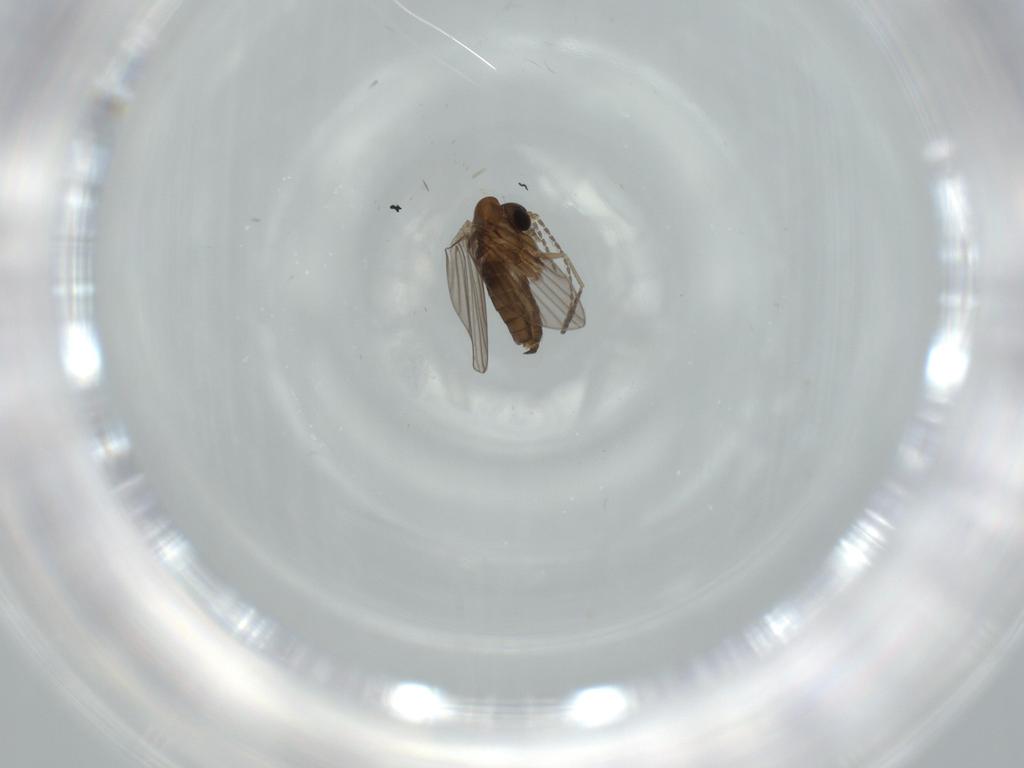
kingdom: Animalia
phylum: Arthropoda
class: Insecta
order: Diptera
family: Psychodidae
